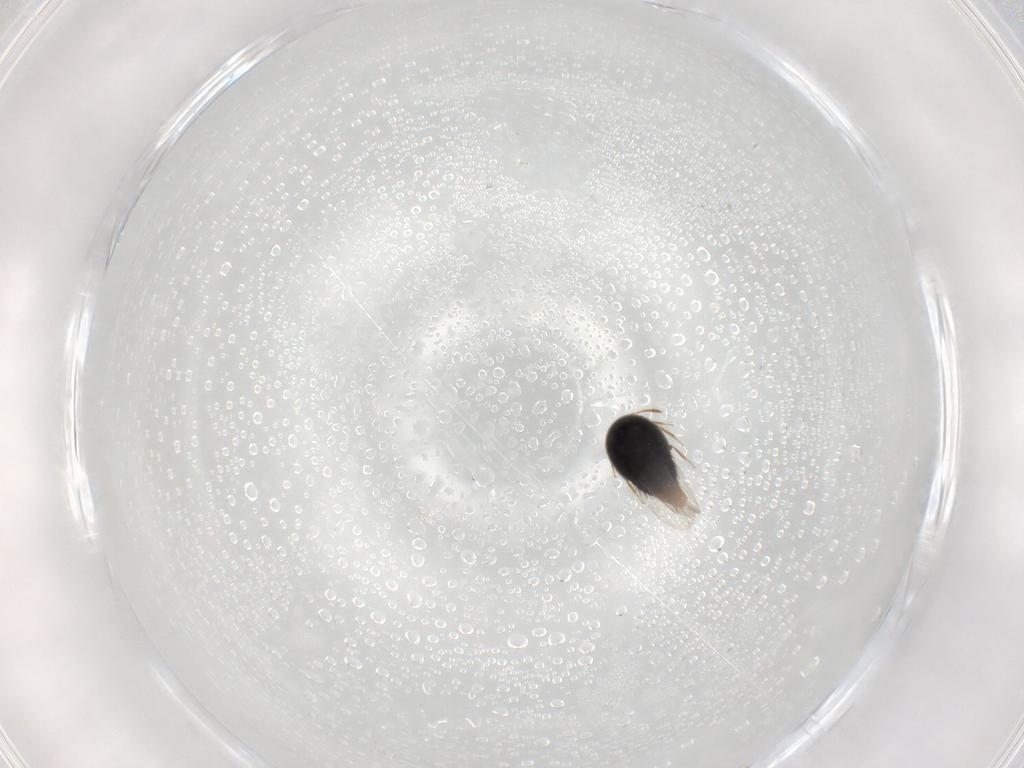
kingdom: Animalia
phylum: Arthropoda
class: Insecta
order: Coleoptera
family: Staphylinidae
